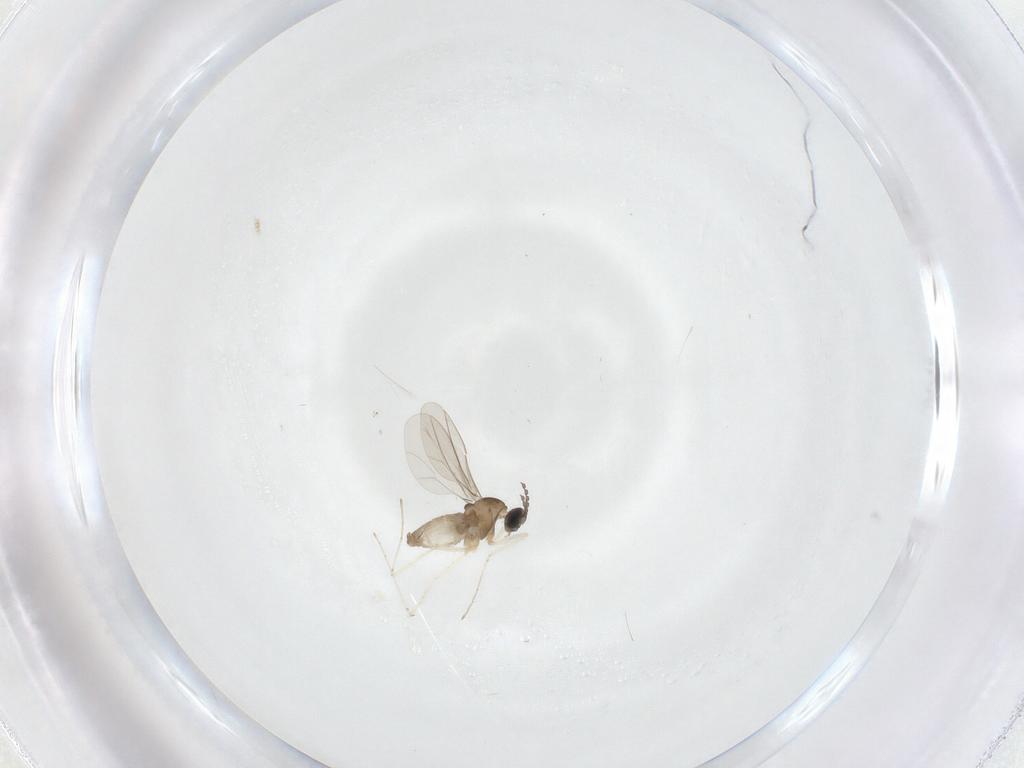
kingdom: Animalia
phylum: Arthropoda
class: Insecta
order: Diptera
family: Cecidomyiidae
